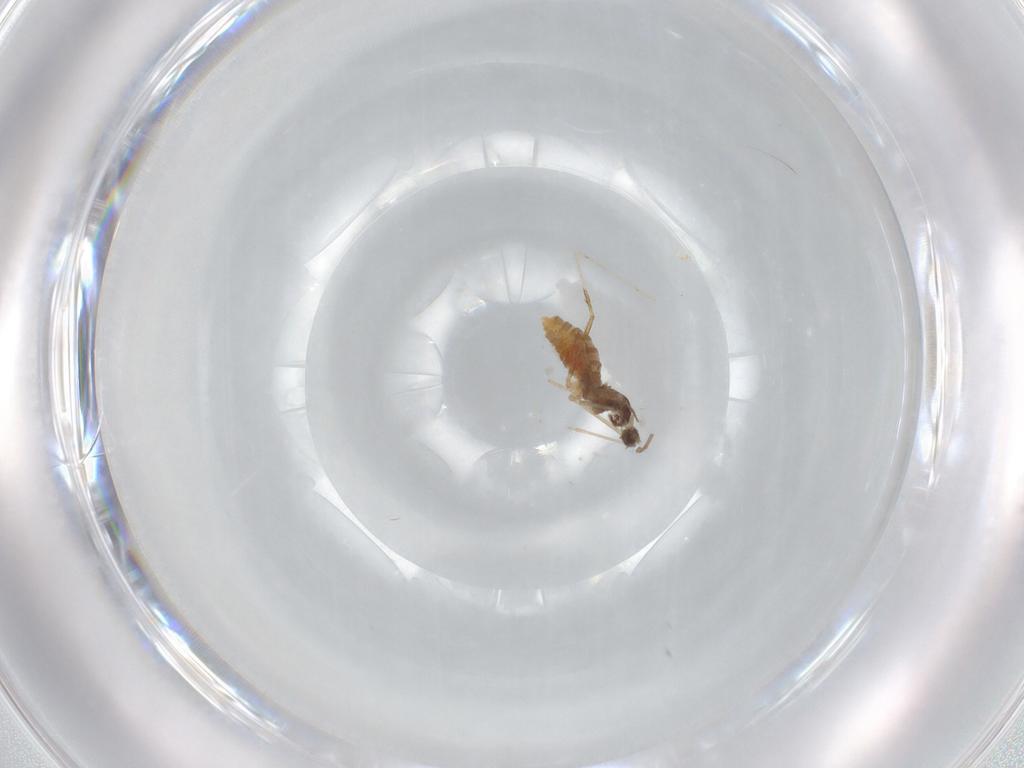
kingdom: Animalia
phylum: Arthropoda
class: Insecta
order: Diptera
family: Cecidomyiidae
